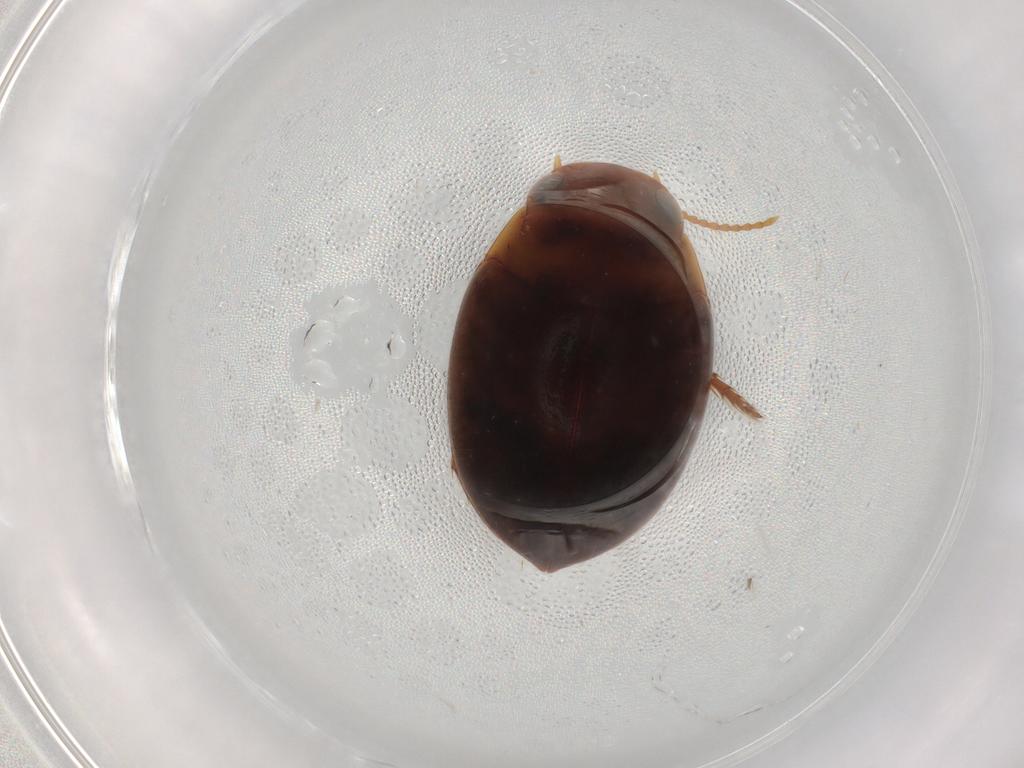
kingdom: Animalia
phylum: Arthropoda
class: Insecta
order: Coleoptera
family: Dytiscidae
